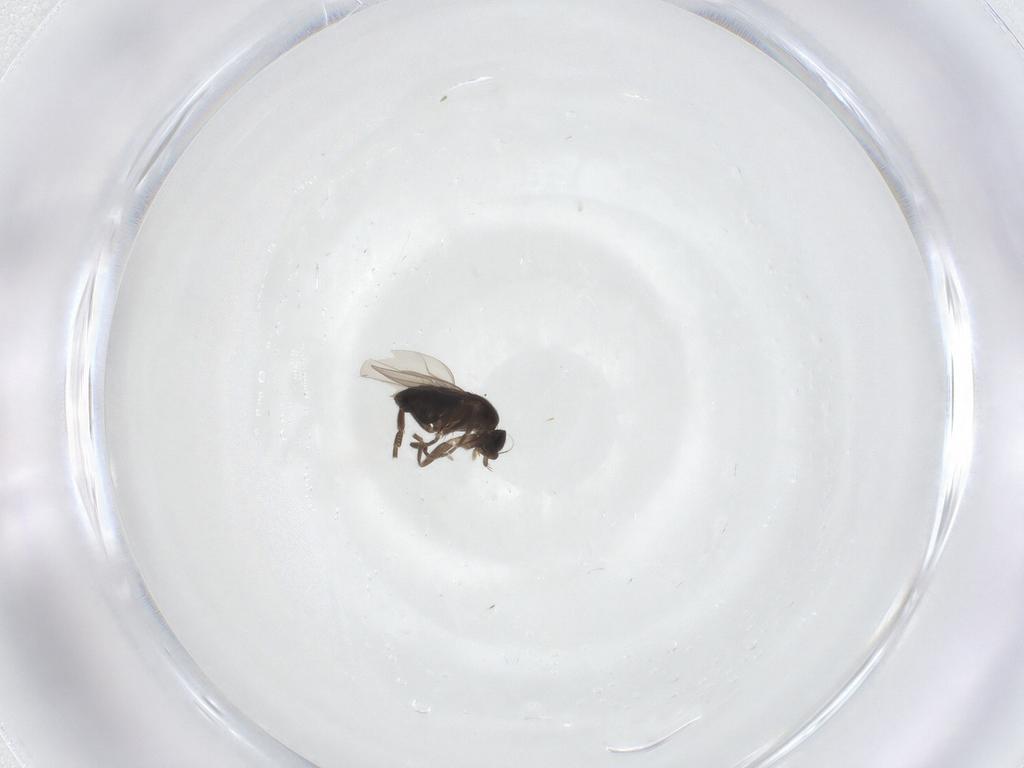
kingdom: Animalia
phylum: Arthropoda
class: Insecta
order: Diptera
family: Phoridae
